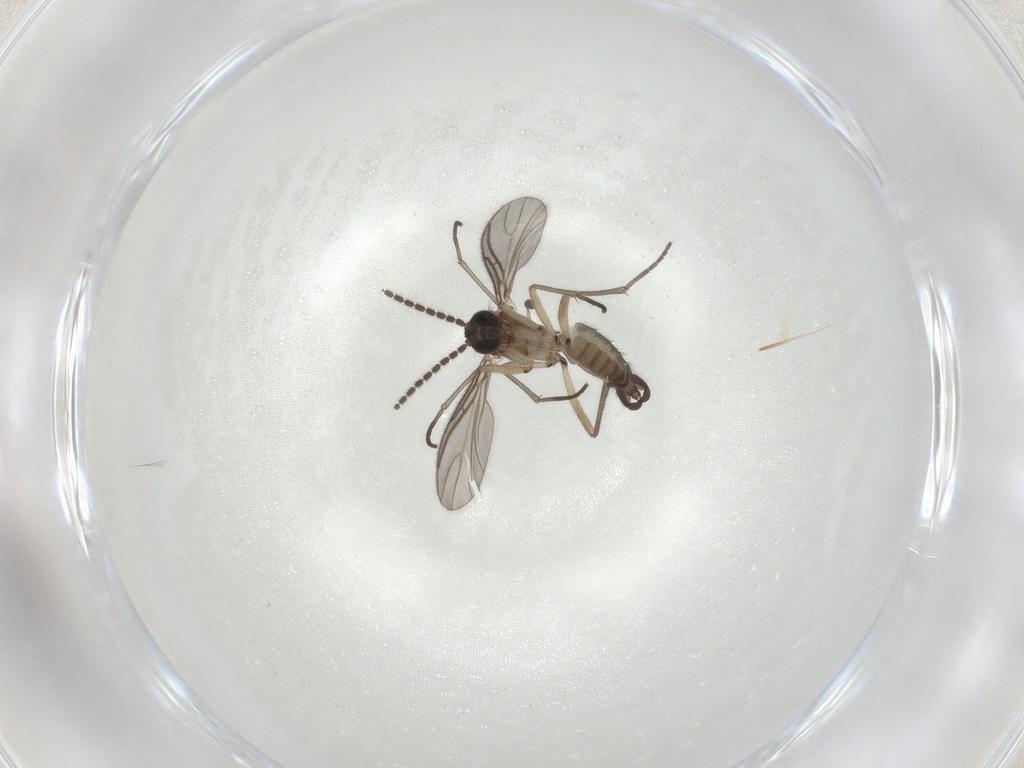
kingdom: Animalia
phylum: Arthropoda
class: Insecta
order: Diptera
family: Sciaridae
